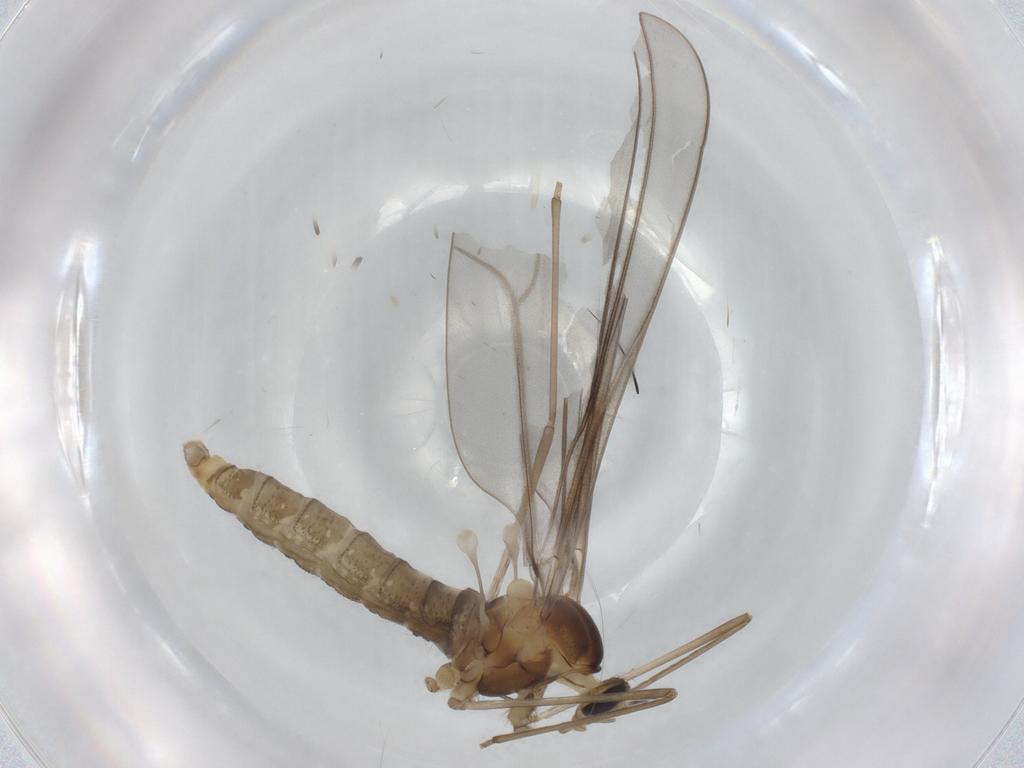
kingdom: Animalia
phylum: Arthropoda
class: Insecta
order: Diptera
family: Cecidomyiidae
